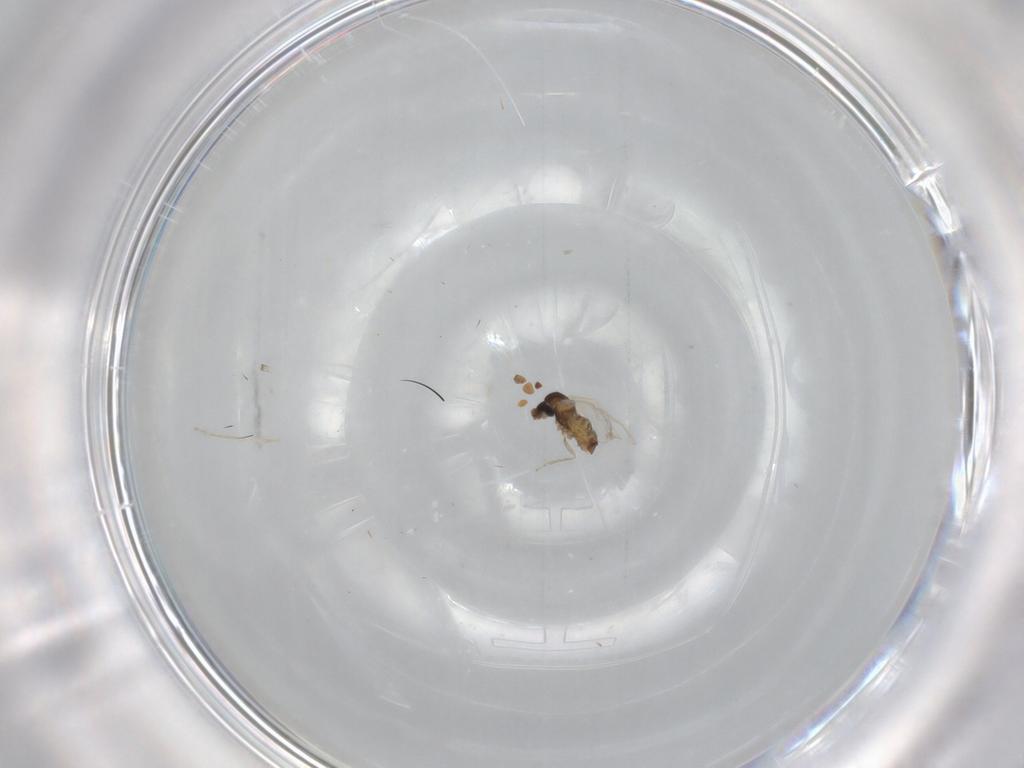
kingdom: Animalia
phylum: Arthropoda
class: Insecta
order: Diptera
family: Cecidomyiidae
